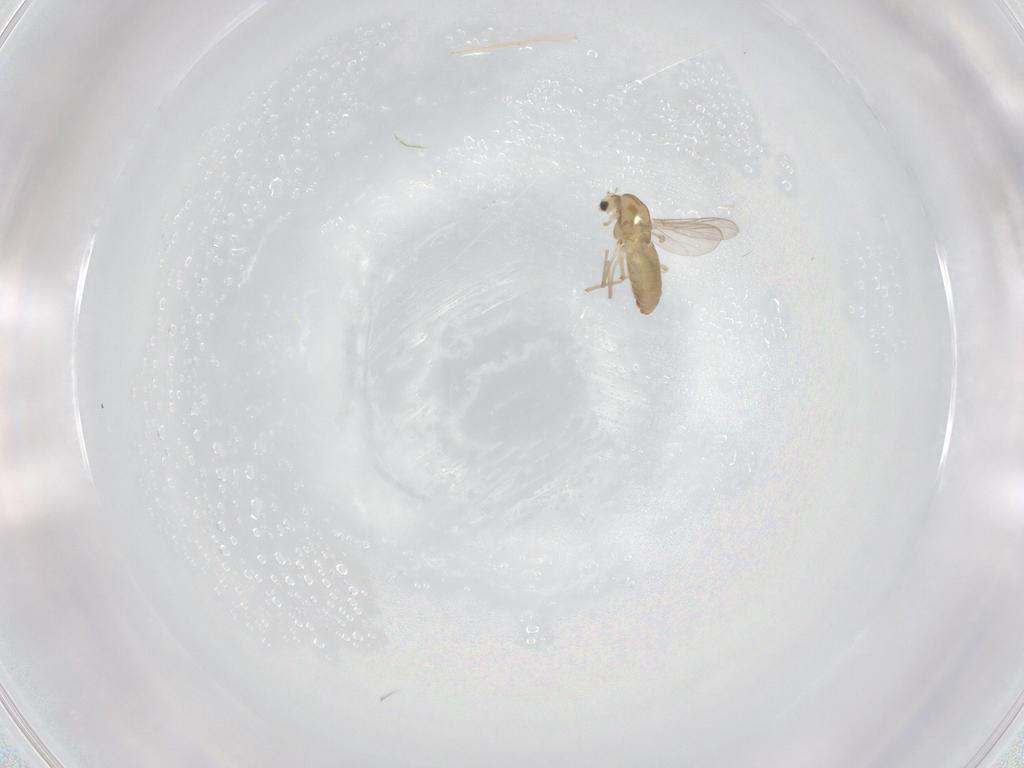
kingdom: Animalia
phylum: Arthropoda
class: Insecta
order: Diptera
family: Chironomidae
